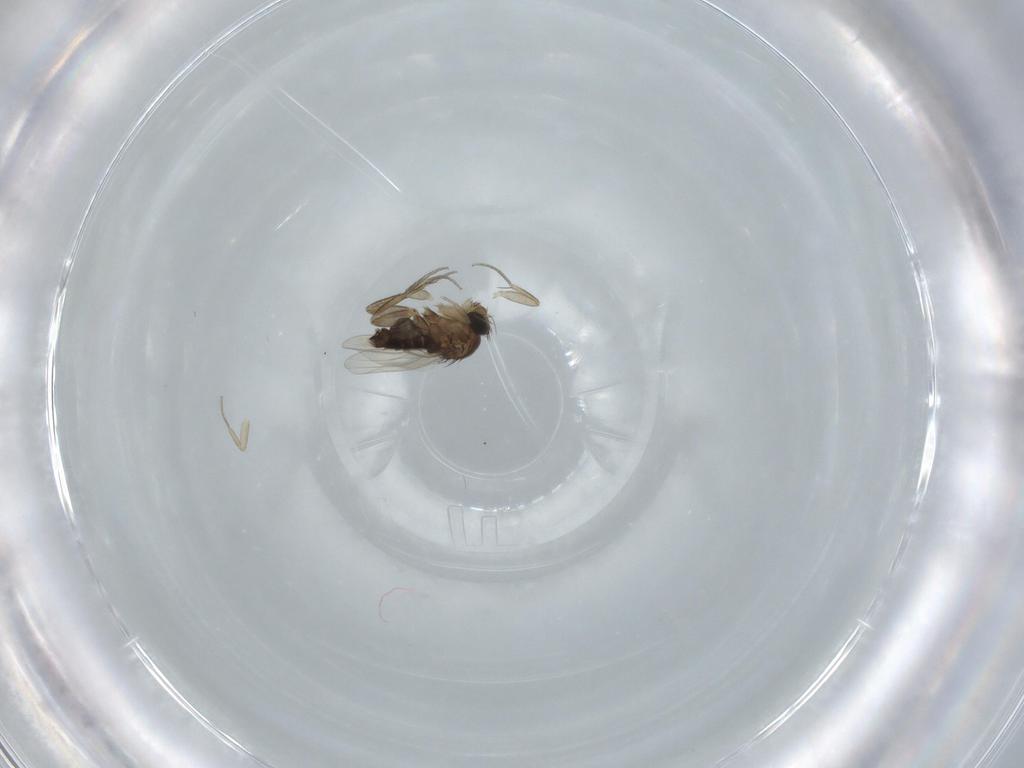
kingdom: Animalia
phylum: Arthropoda
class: Insecta
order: Diptera
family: Phoridae
